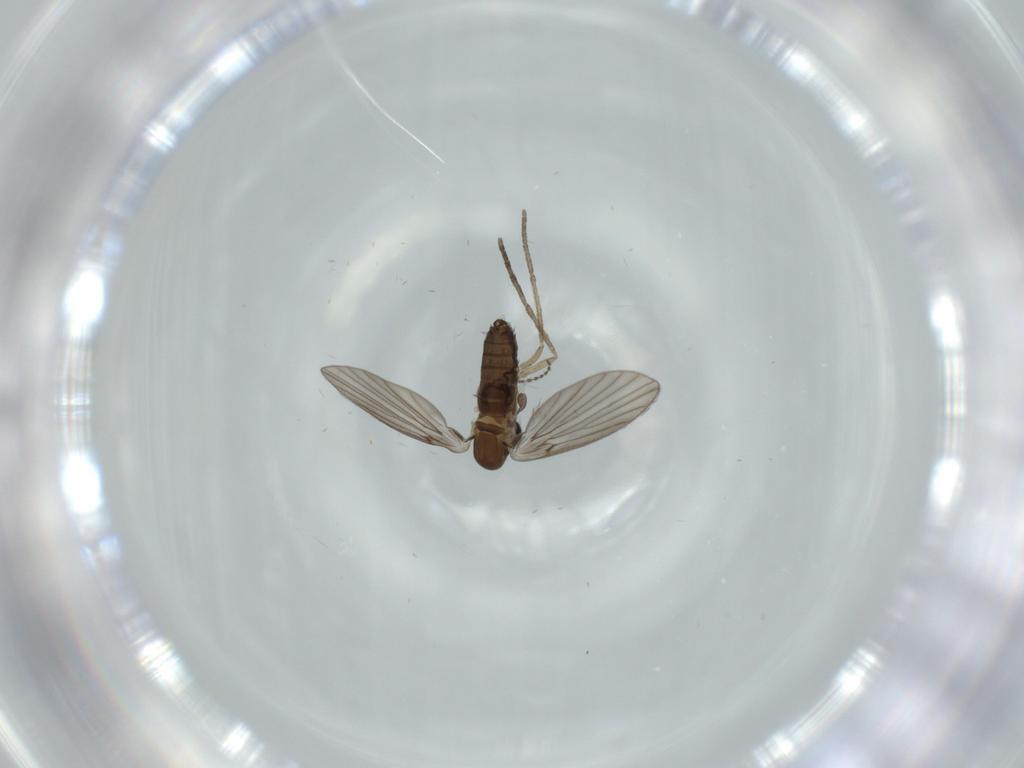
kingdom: Animalia
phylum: Arthropoda
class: Insecta
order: Diptera
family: Psychodidae
